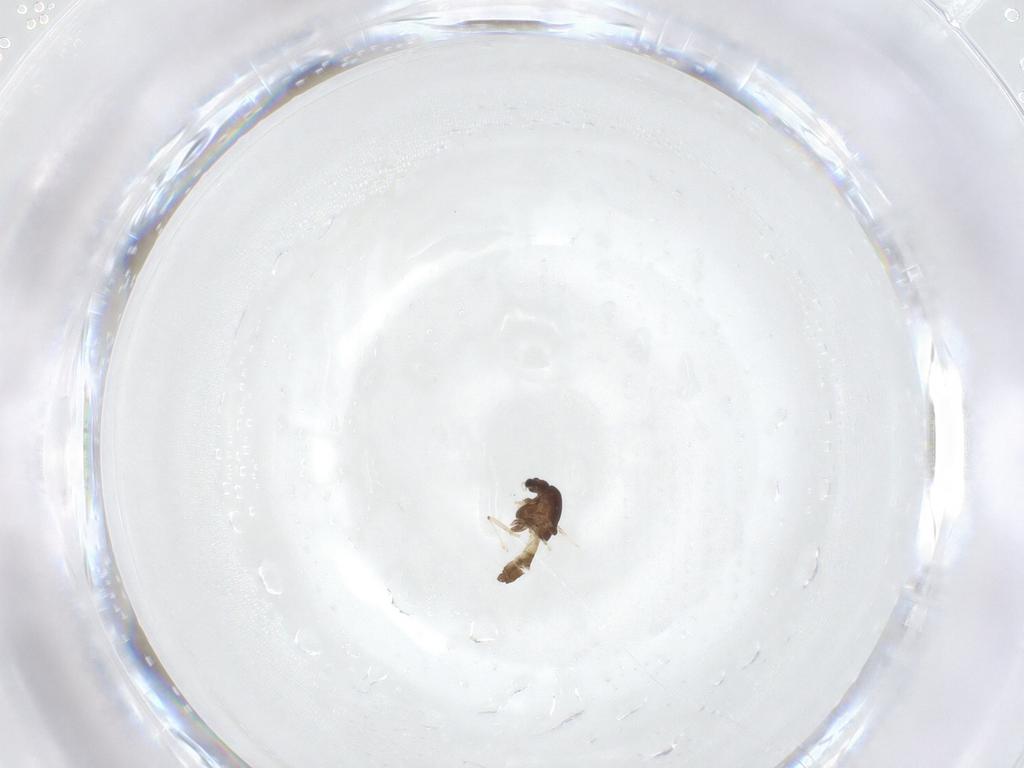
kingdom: Animalia
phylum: Arthropoda
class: Insecta
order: Diptera
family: Chironomidae
